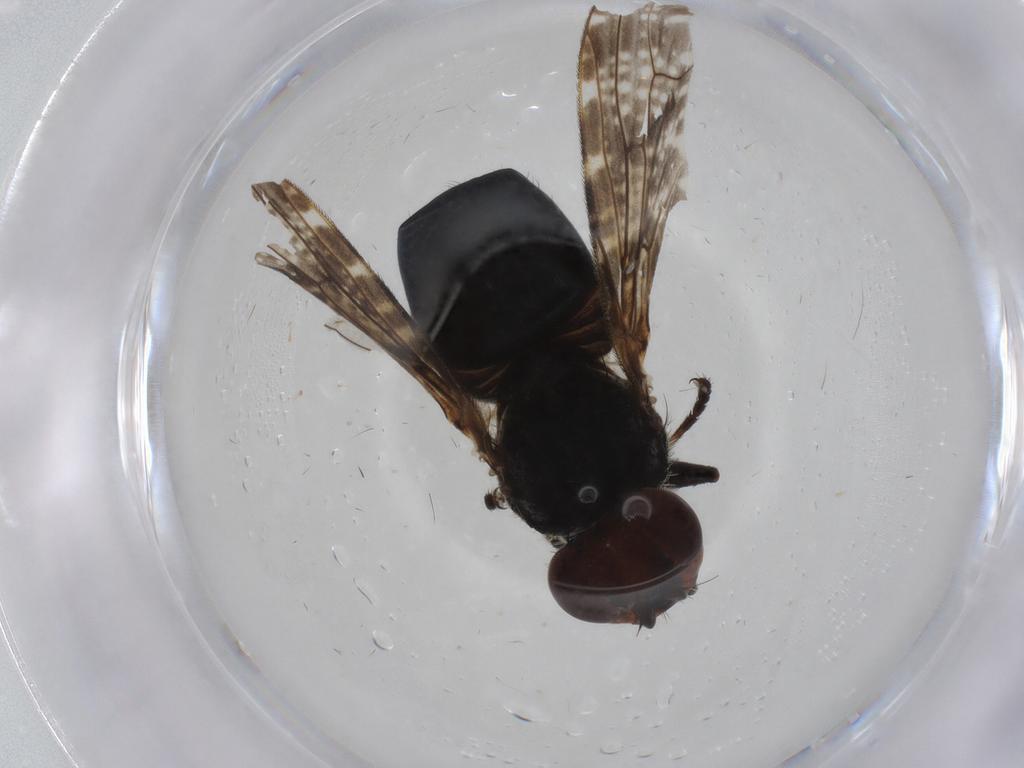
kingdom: Animalia
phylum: Arthropoda
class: Insecta
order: Diptera
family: Platystomatidae
